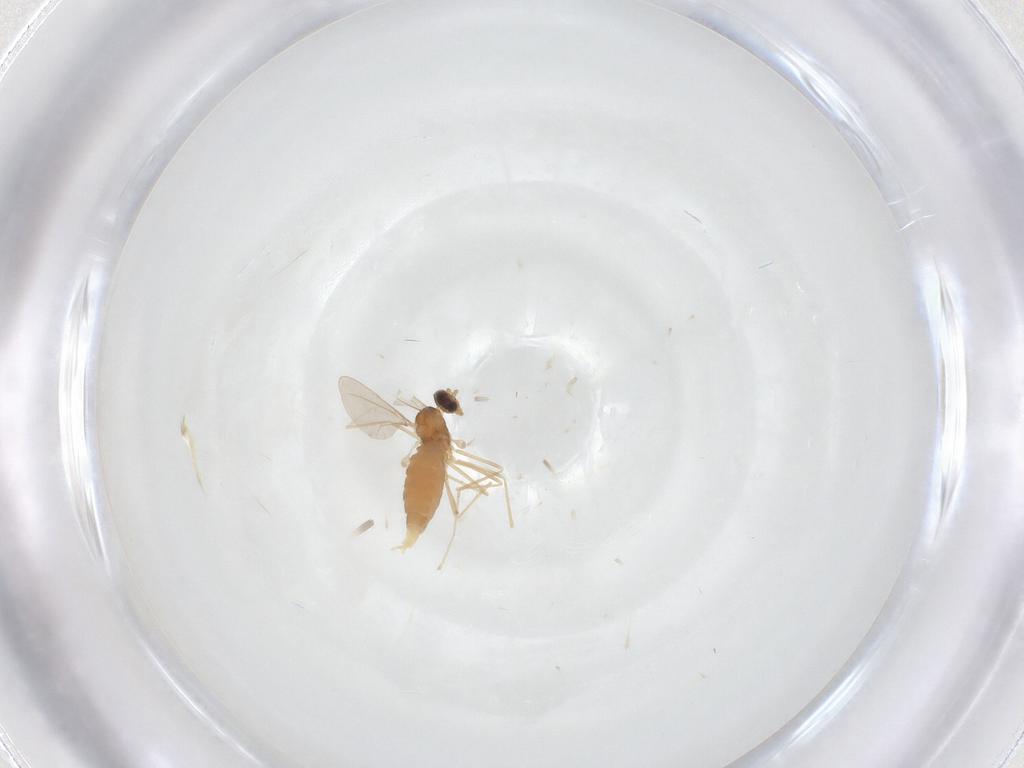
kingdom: Animalia
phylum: Arthropoda
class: Insecta
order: Diptera
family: Cecidomyiidae
